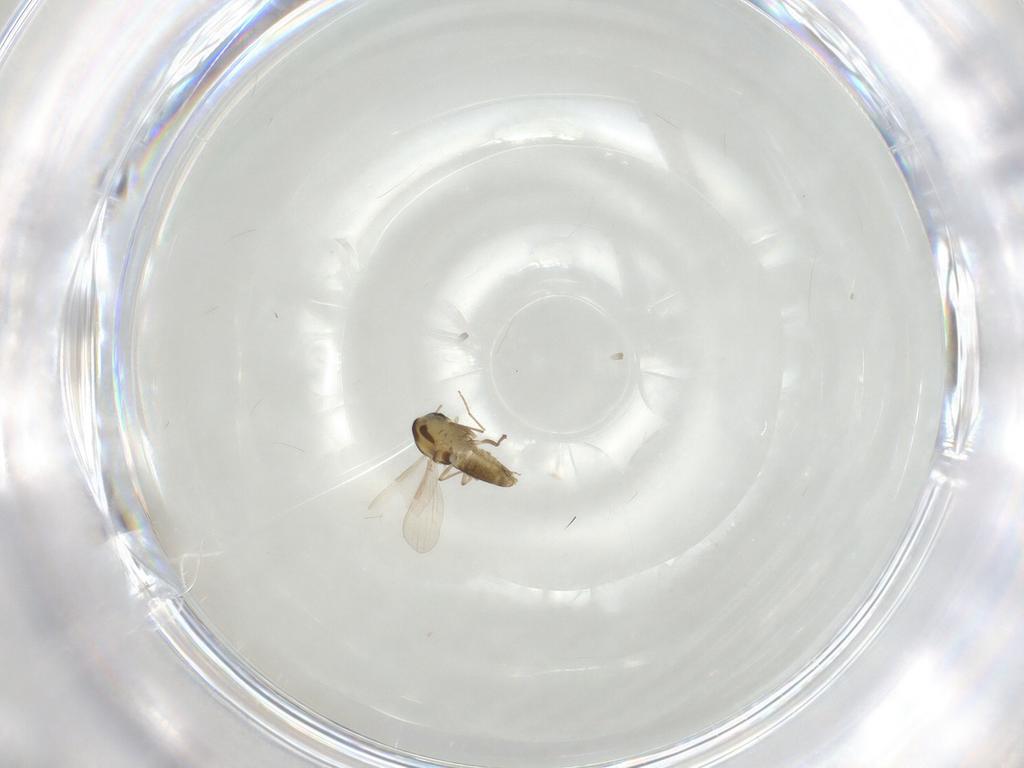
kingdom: Animalia
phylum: Arthropoda
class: Insecta
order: Diptera
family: Chironomidae
